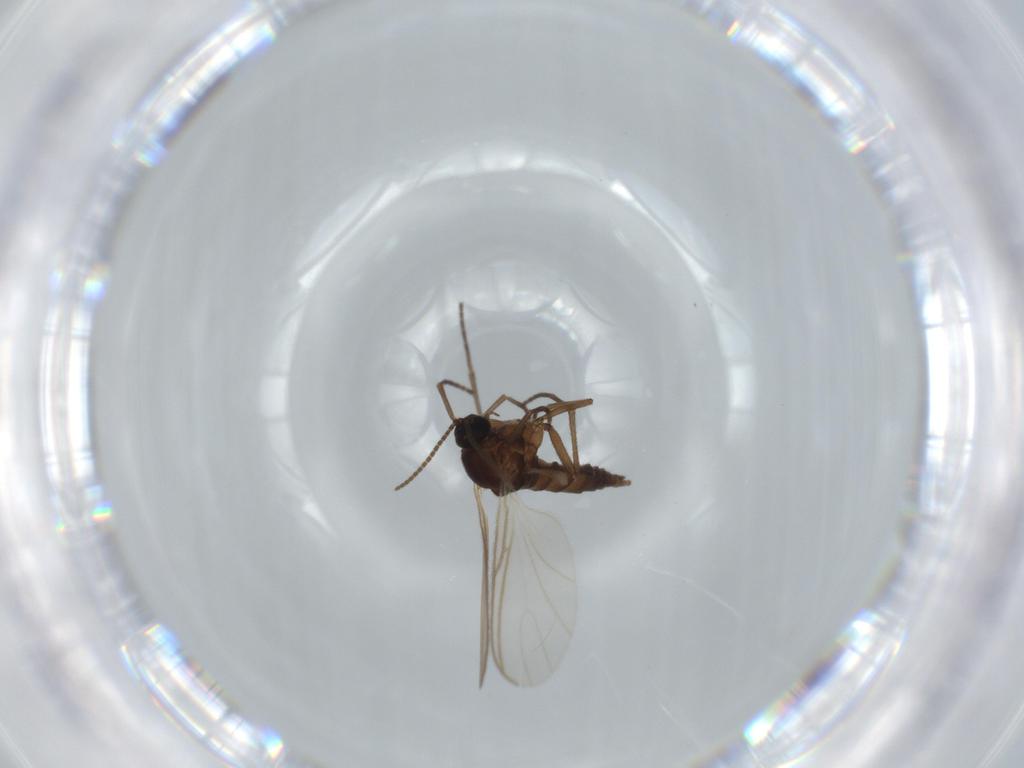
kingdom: Animalia
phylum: Arthropoda
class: Insecta
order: Diptera
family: Sciaridae
